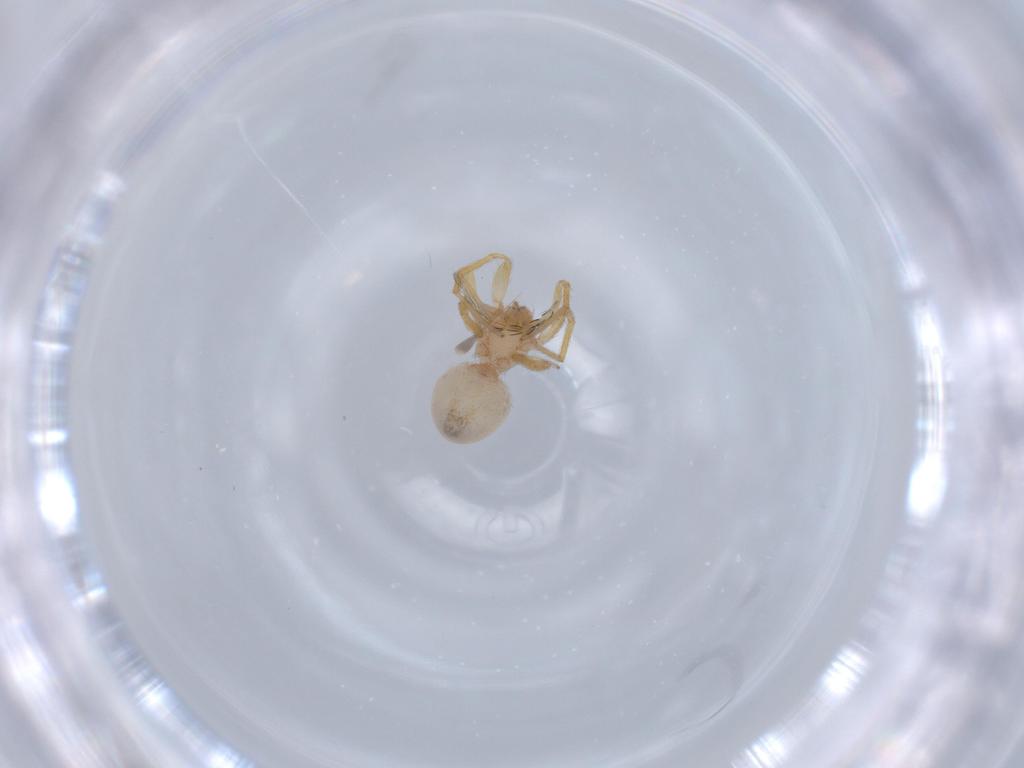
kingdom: Animalia
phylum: Arthropoda
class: Arachnida
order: Araneae
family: Oonopidae
